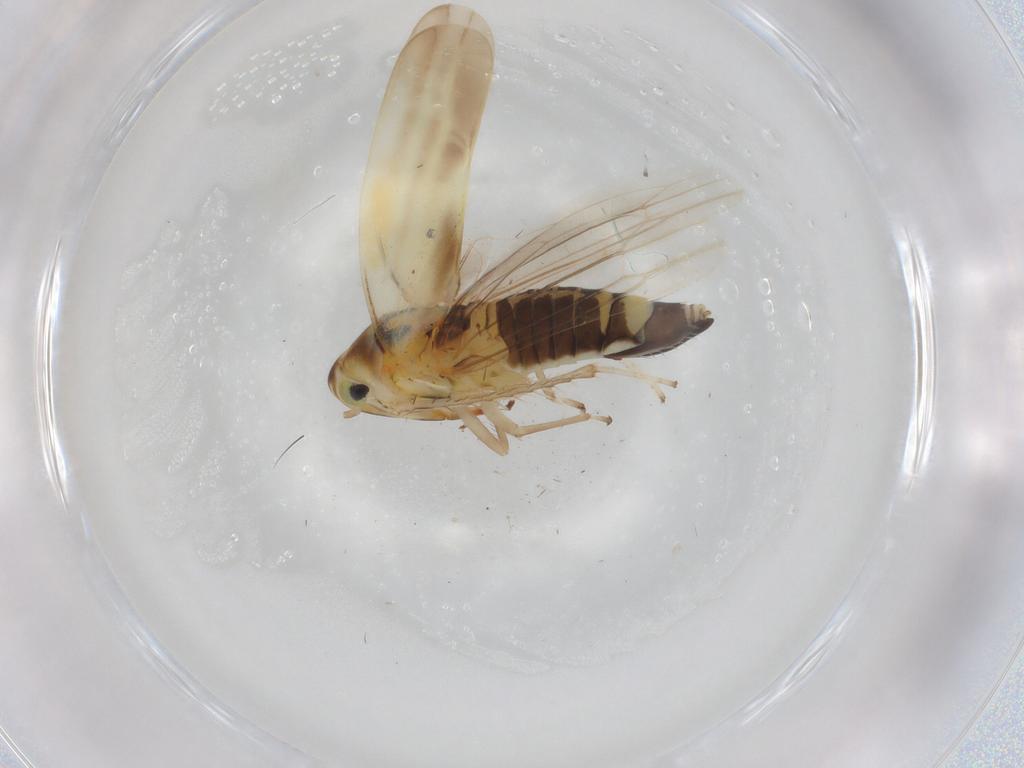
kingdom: Animalia
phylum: Arthropoda
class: Insecta
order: Hemiptera
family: Cicadellidae
